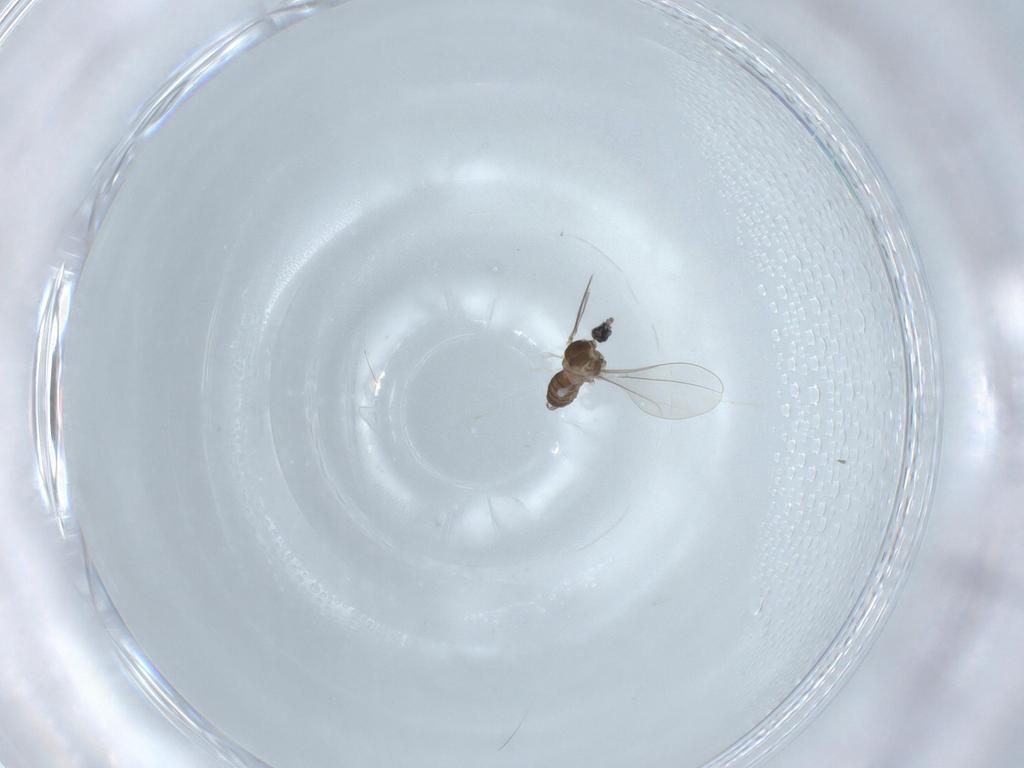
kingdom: Animalia
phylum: Arthropoda
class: Insecta
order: Diptera
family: Cecidomyiidae
